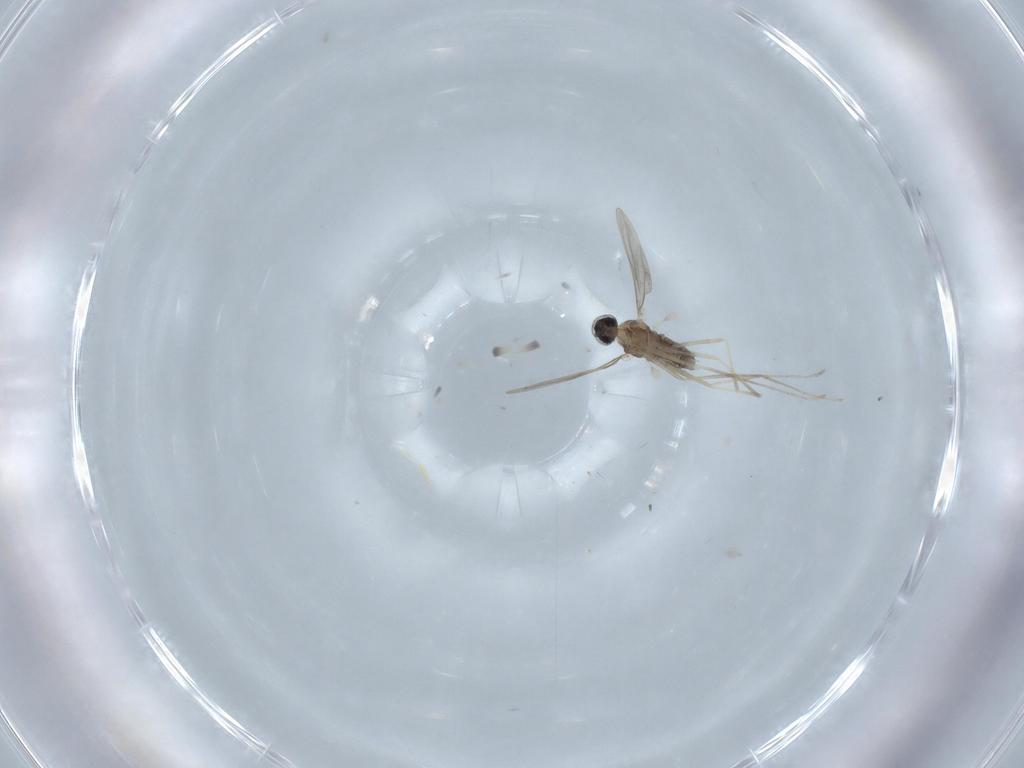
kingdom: Animalia
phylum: Arthropoda
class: Insecta
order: Diptera
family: Cecidomyiidae
